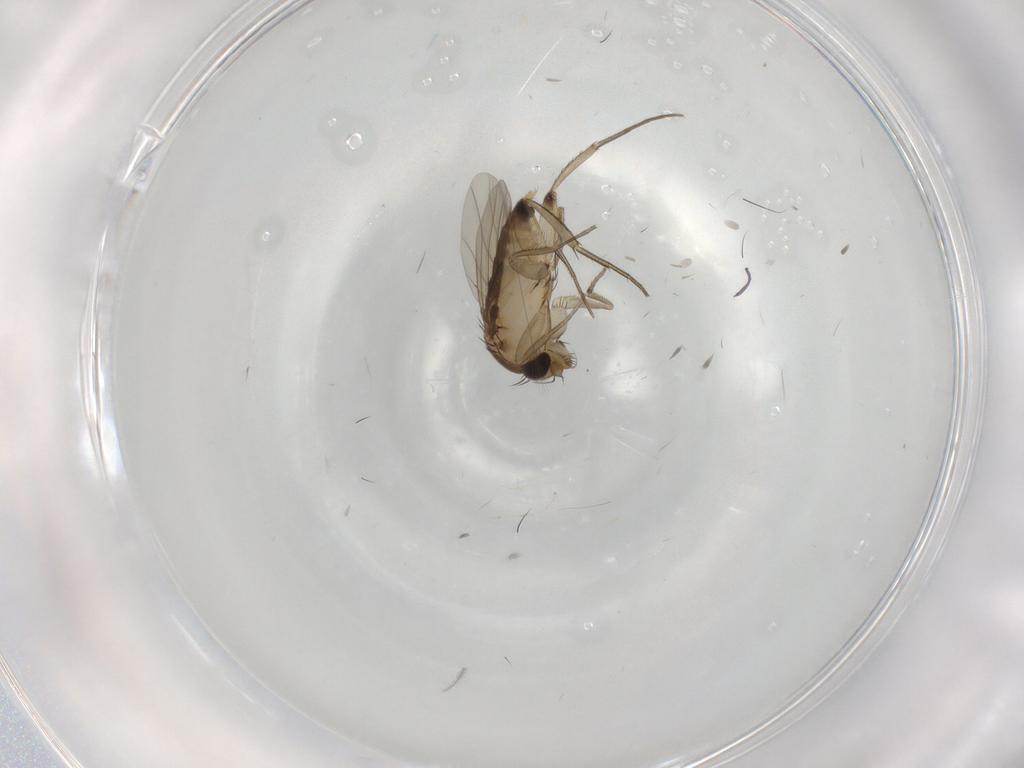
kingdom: Animalia
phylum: Arthropoda
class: Insecta
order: Diptera
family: Phoridae
